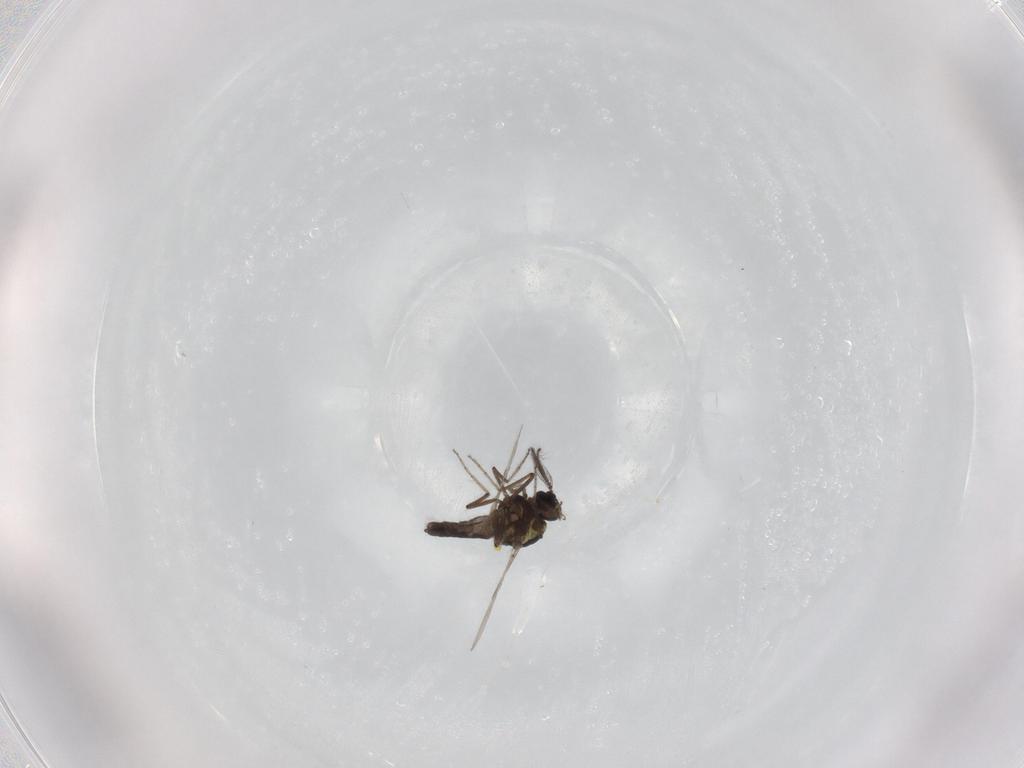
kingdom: Animalia
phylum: Arthropoda
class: Insecta
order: Diptera
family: Ceratopogonidae
